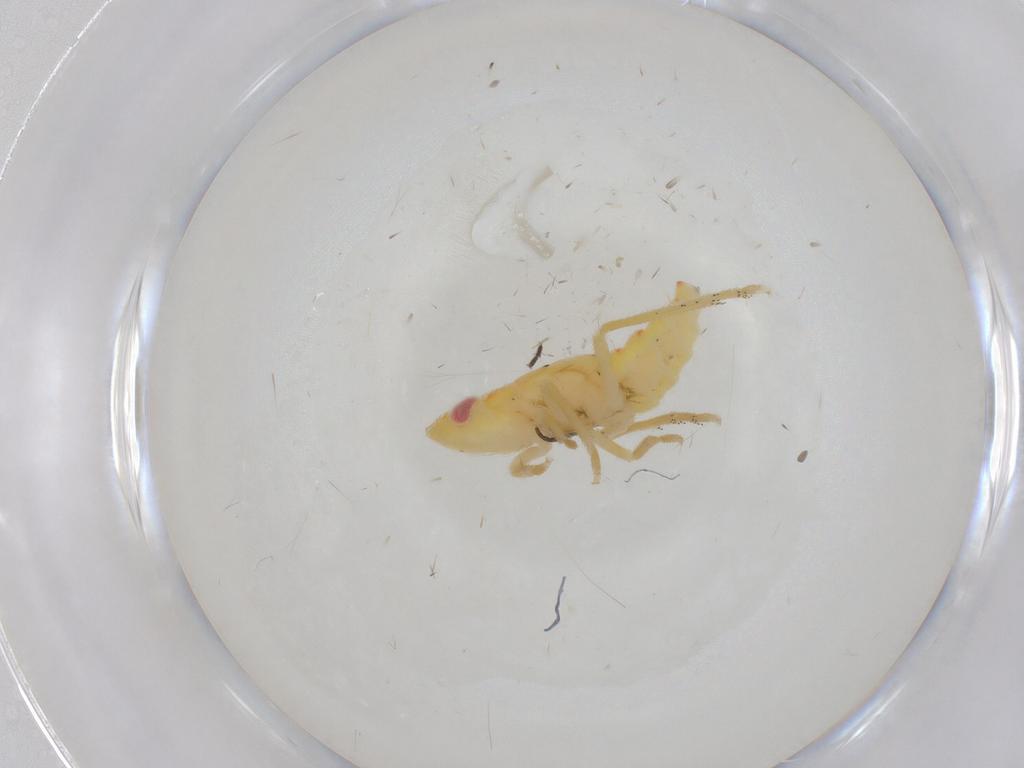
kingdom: Animalia
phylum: Arthropoda
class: Insecta
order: Hemiptera
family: Tropiduchidae
